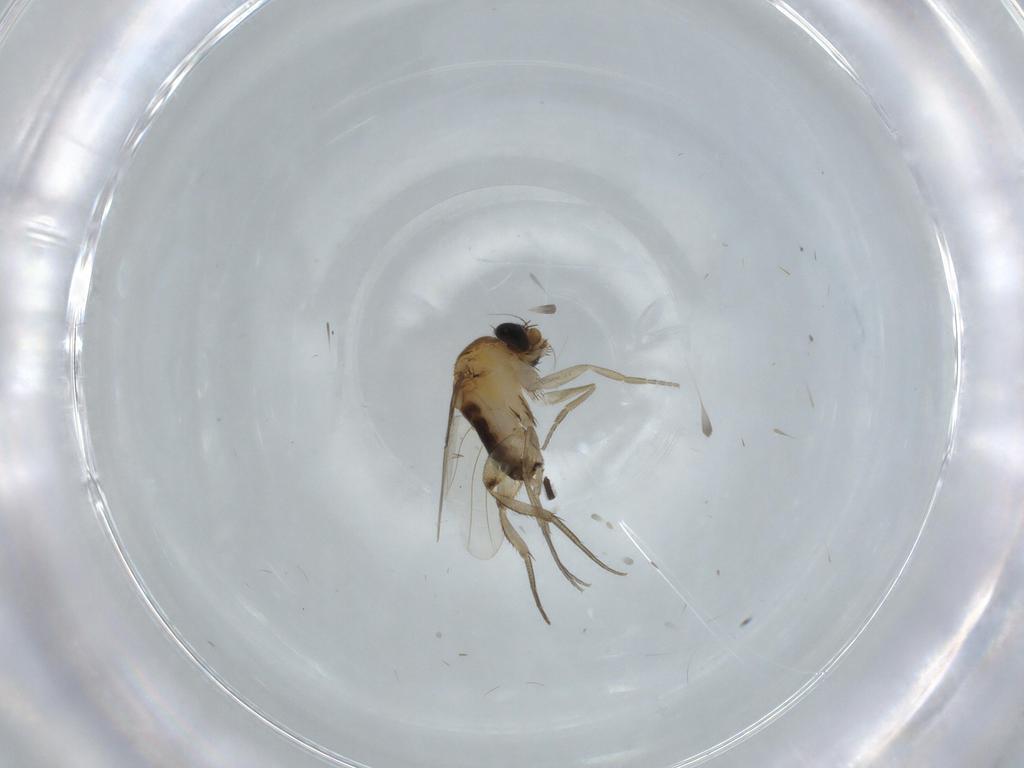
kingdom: Animalia
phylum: Arthropoda
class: Insecta
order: Diptera
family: Sciaridae
